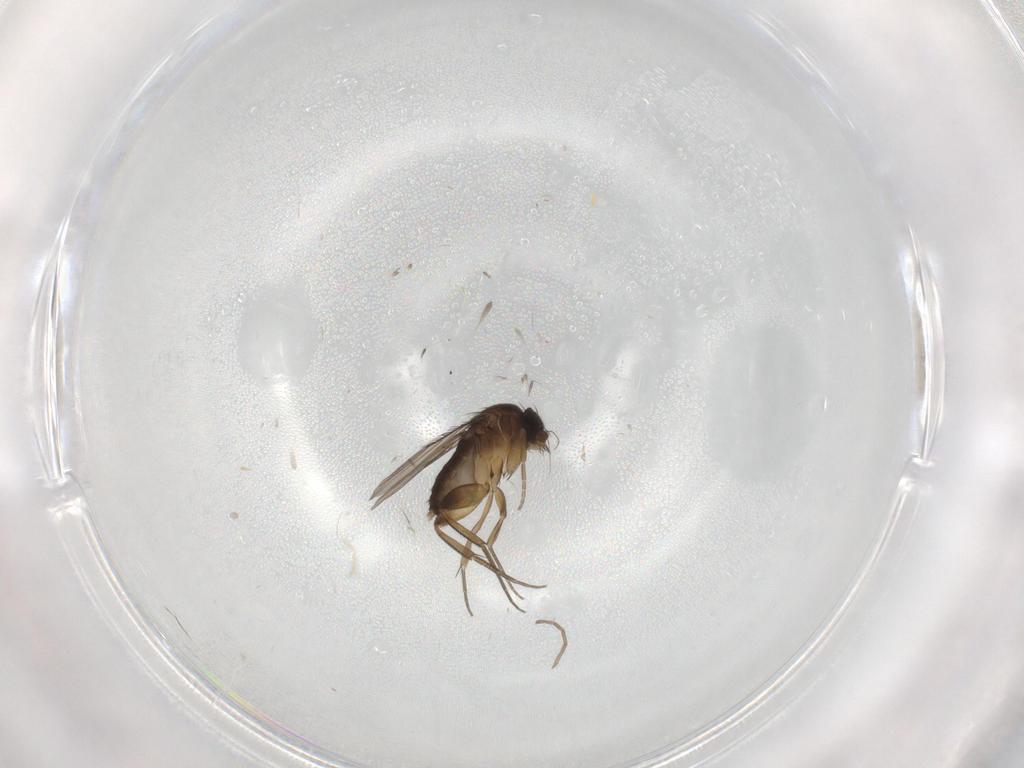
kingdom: Animalia
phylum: Arthropoda
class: Insecta
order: Diptera
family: Phoridae
